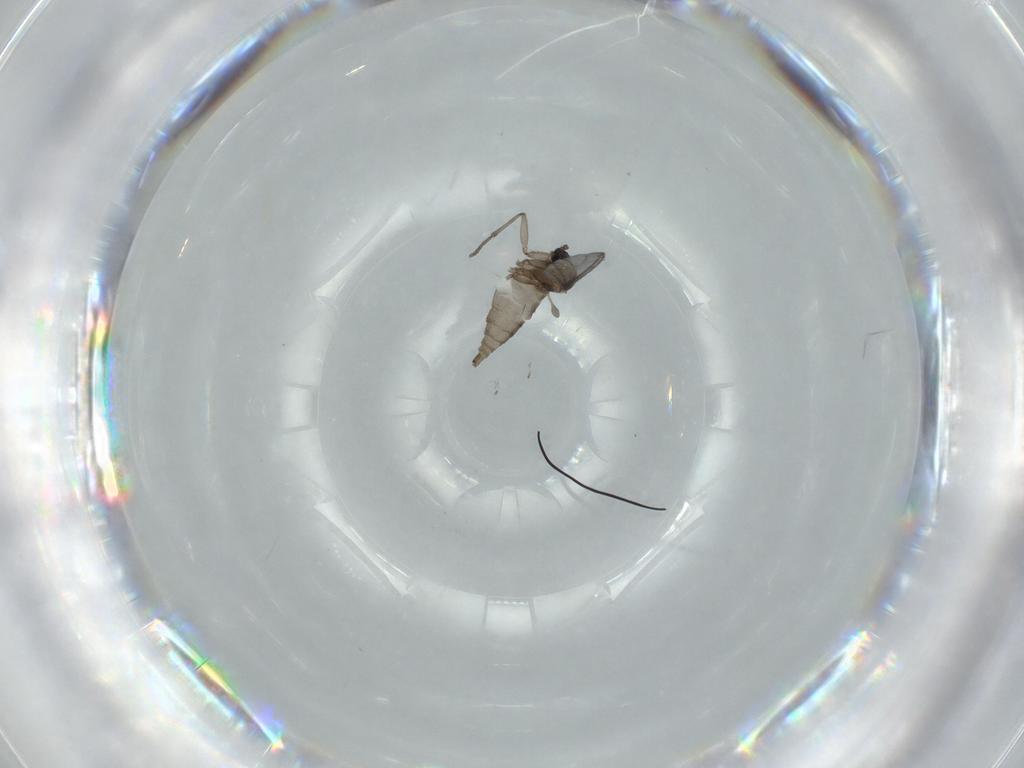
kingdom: Animalia
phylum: Arthropoda
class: Insecta
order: Diptera
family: Sciaridae
